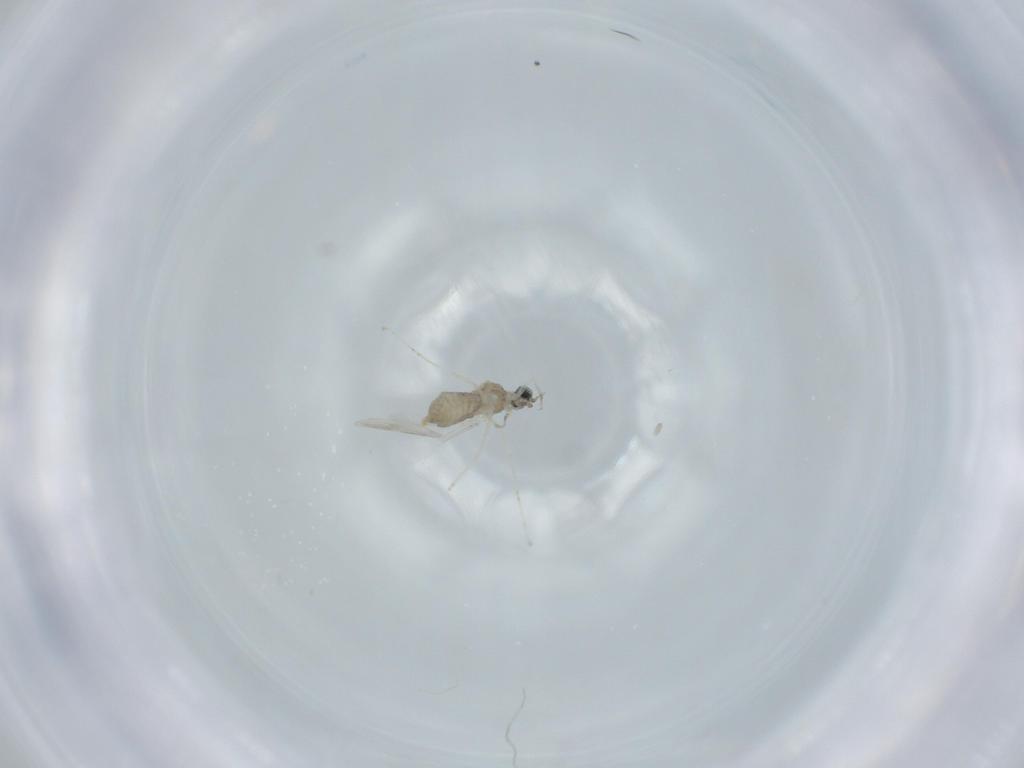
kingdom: Animalia
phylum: Arthropoda
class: Insecta
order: Diptera
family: Cecidomyiidae
